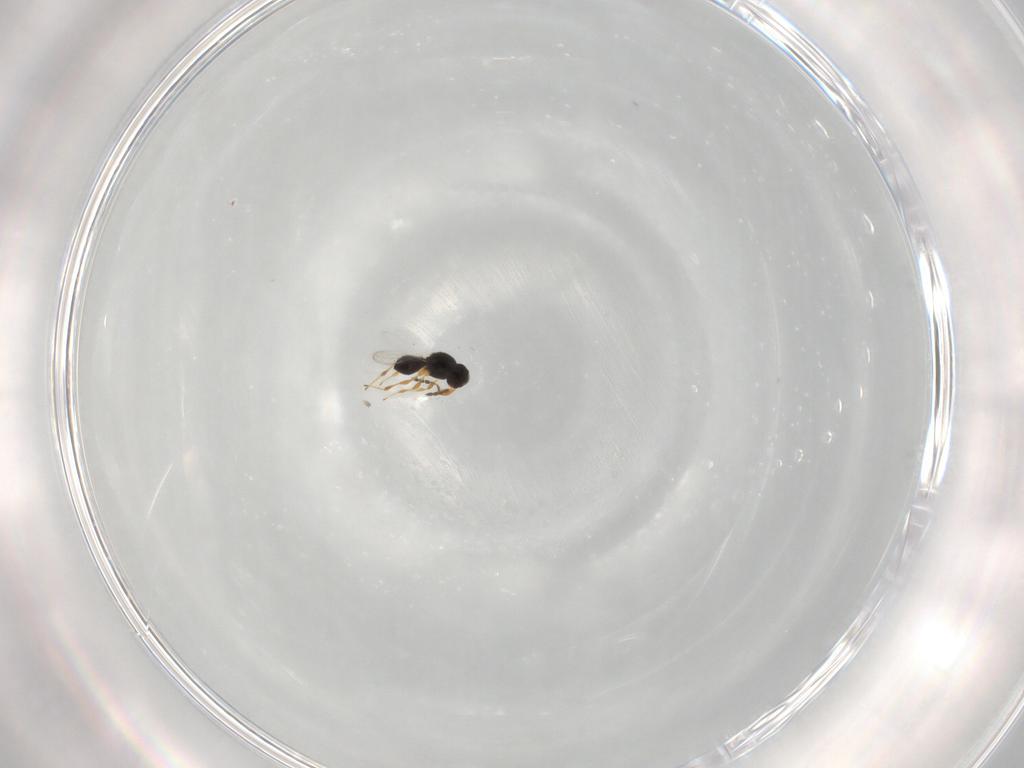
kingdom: Animalia
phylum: Arthropoda
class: Insecta
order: Hymenoptera
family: Platygastridae
